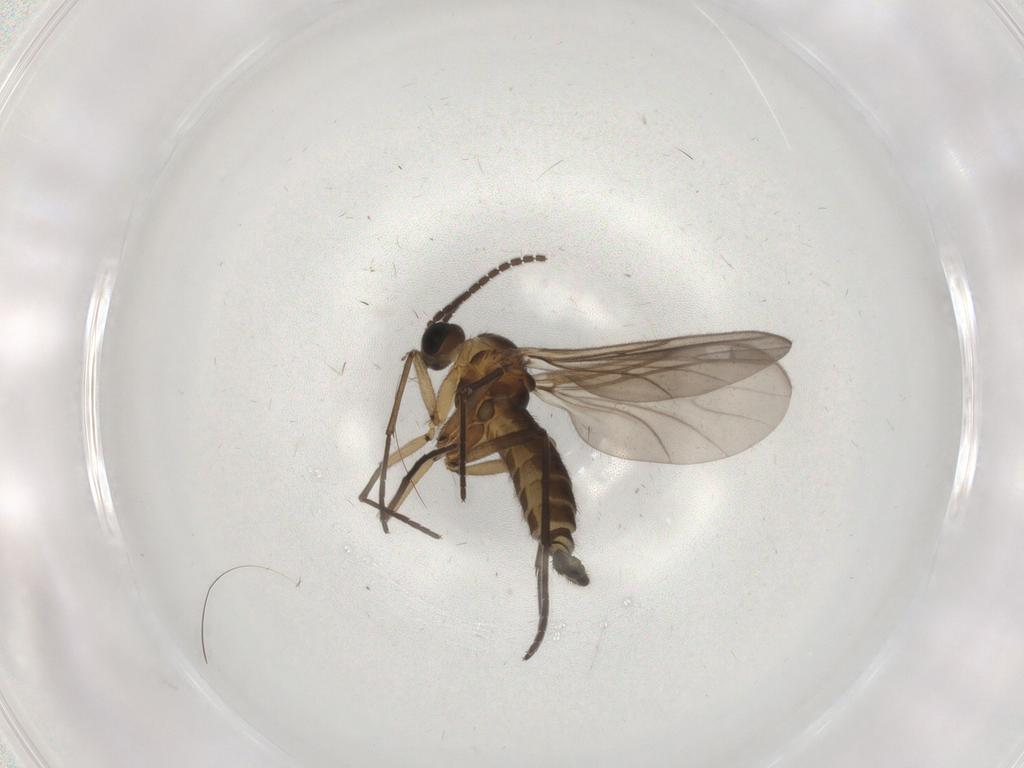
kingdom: Animalia
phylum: Arthropoda
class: Insecta
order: Diptera
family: Sciaridae
